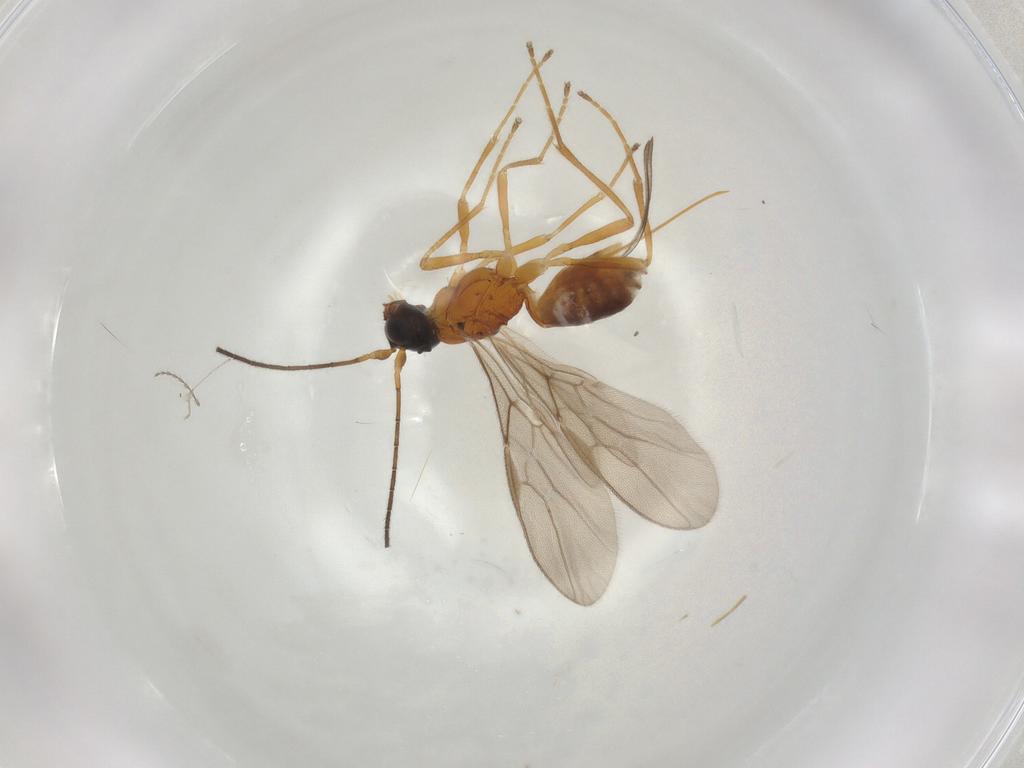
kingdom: Animalia
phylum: Arthropoda
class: Insecta
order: Hymenoptera
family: Braconidae
